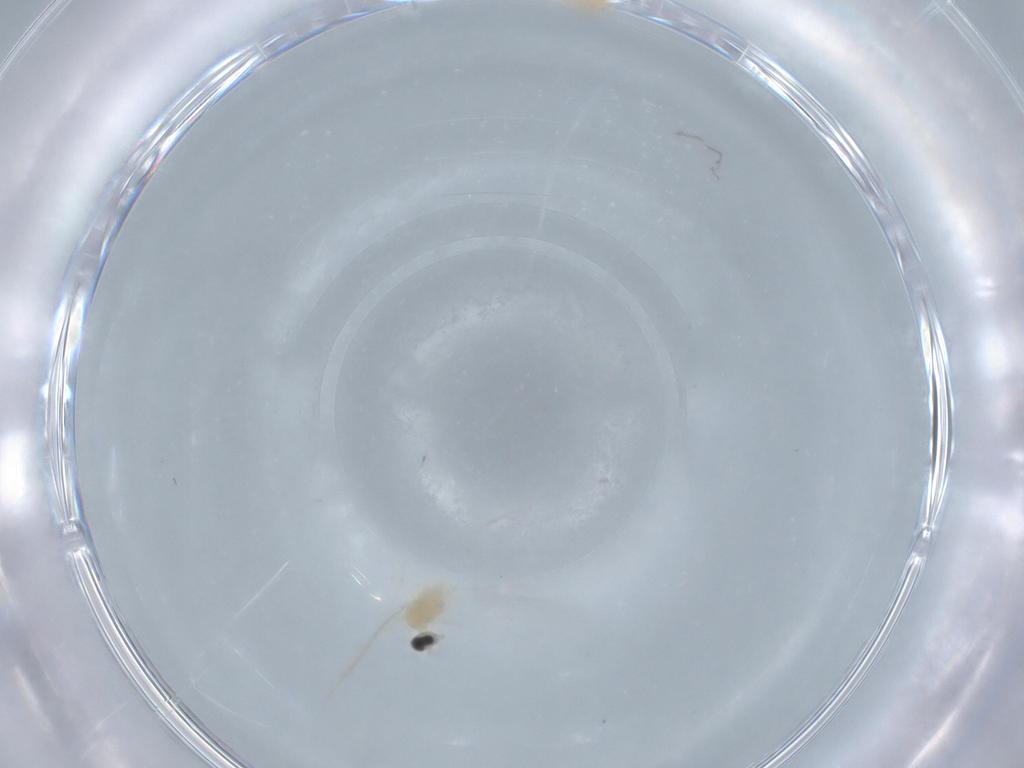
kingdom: Animalia
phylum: Arthropoda
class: Insecta
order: Diptera
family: Cecidomyiidae
